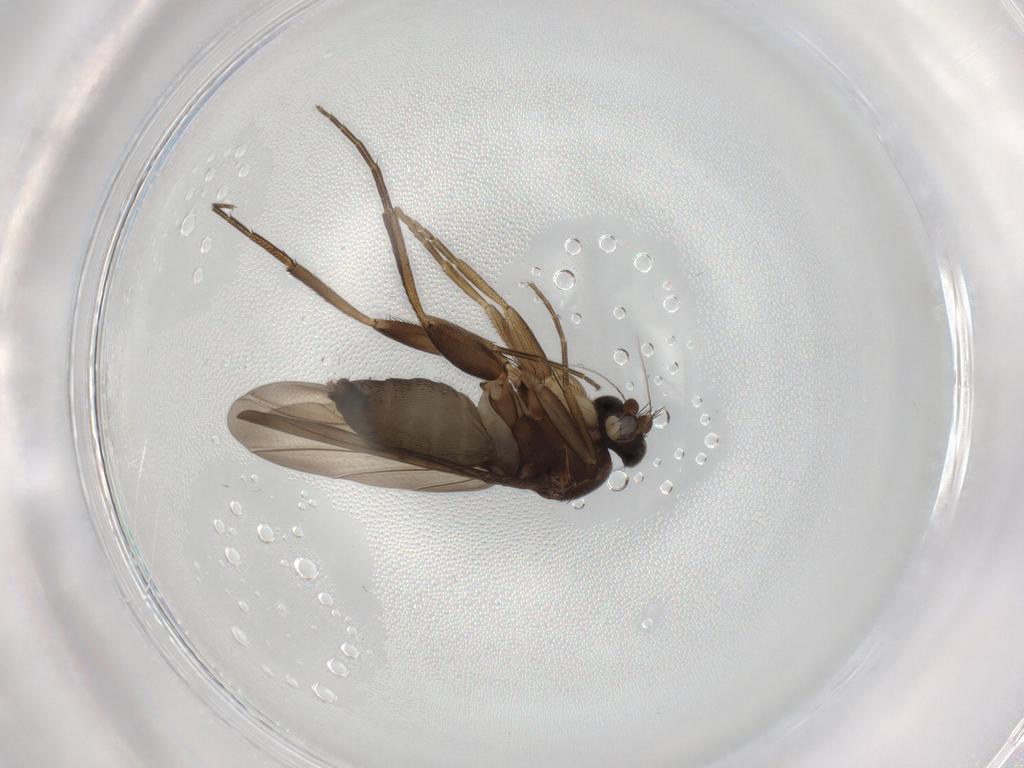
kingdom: Animalia
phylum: Arthropoda
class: Insecta
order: Diptera
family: Phoridae
